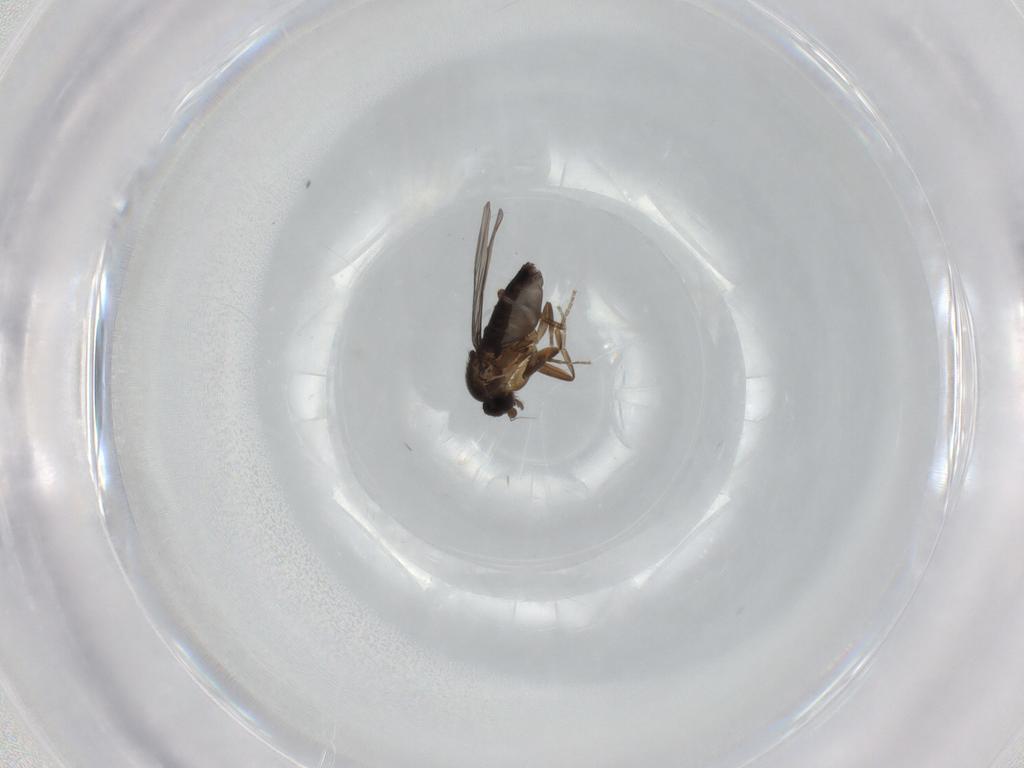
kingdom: Animalia
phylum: Arthropoda
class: Insecta
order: Diptera
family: Phoridae
